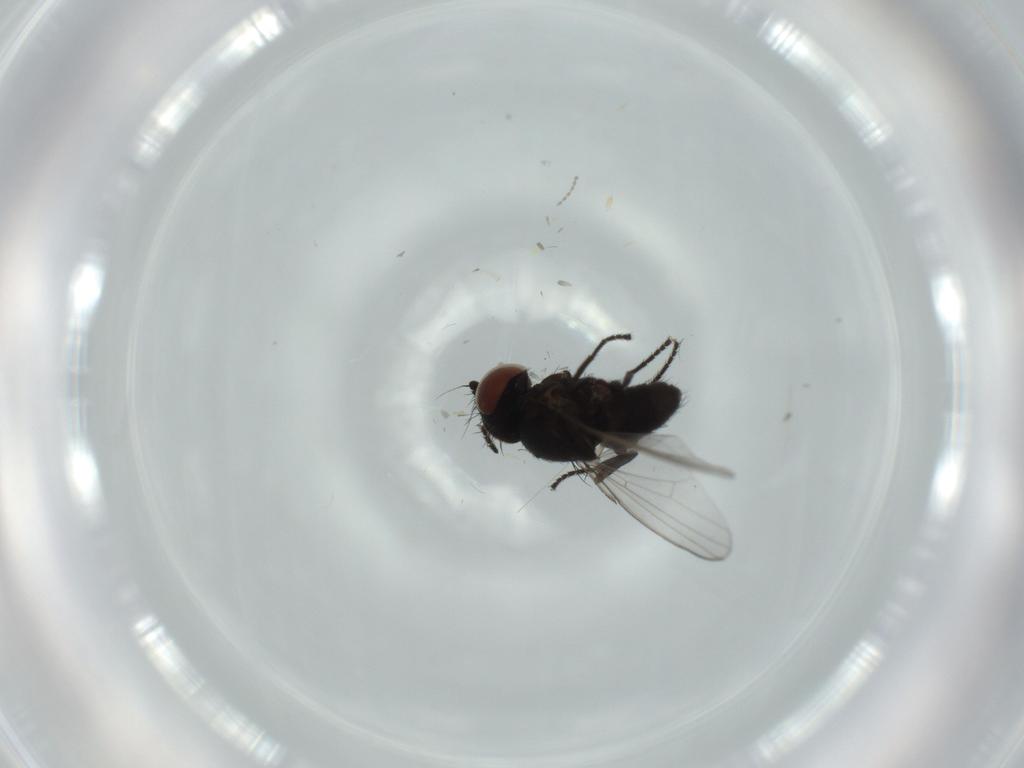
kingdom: Animalia
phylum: Arthropoda
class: Insecta
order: Diptera
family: Milichiidae
